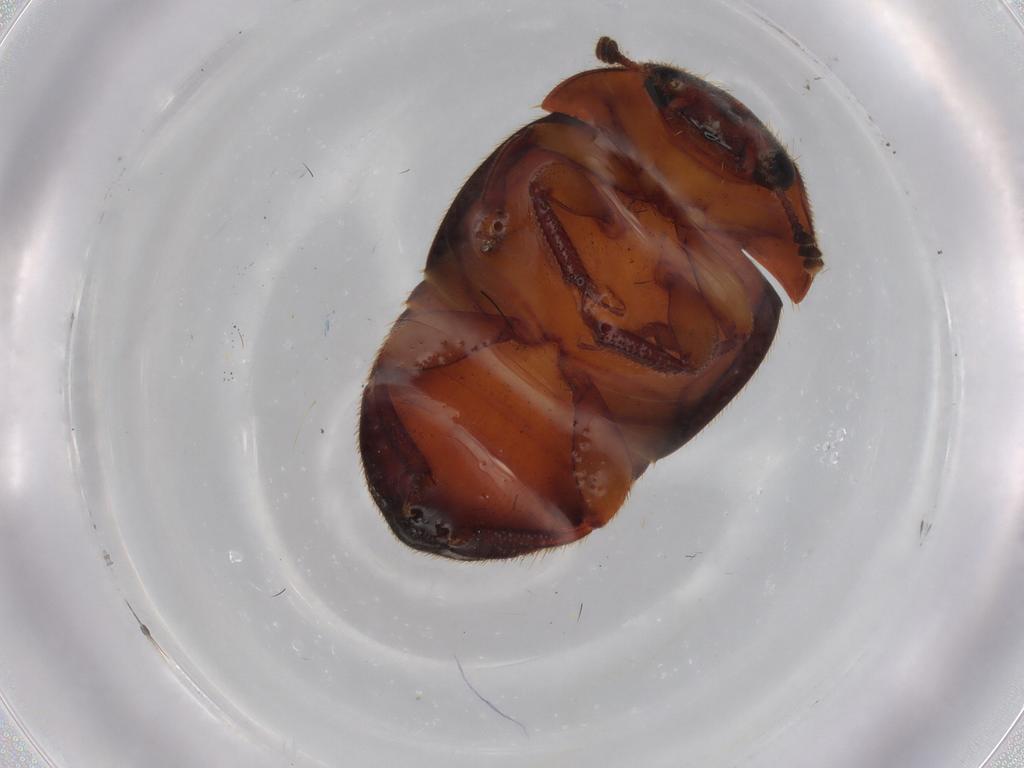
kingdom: Animalia
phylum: Arthropoda
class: Insecta
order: Coleoptera
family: Nitidulidae
